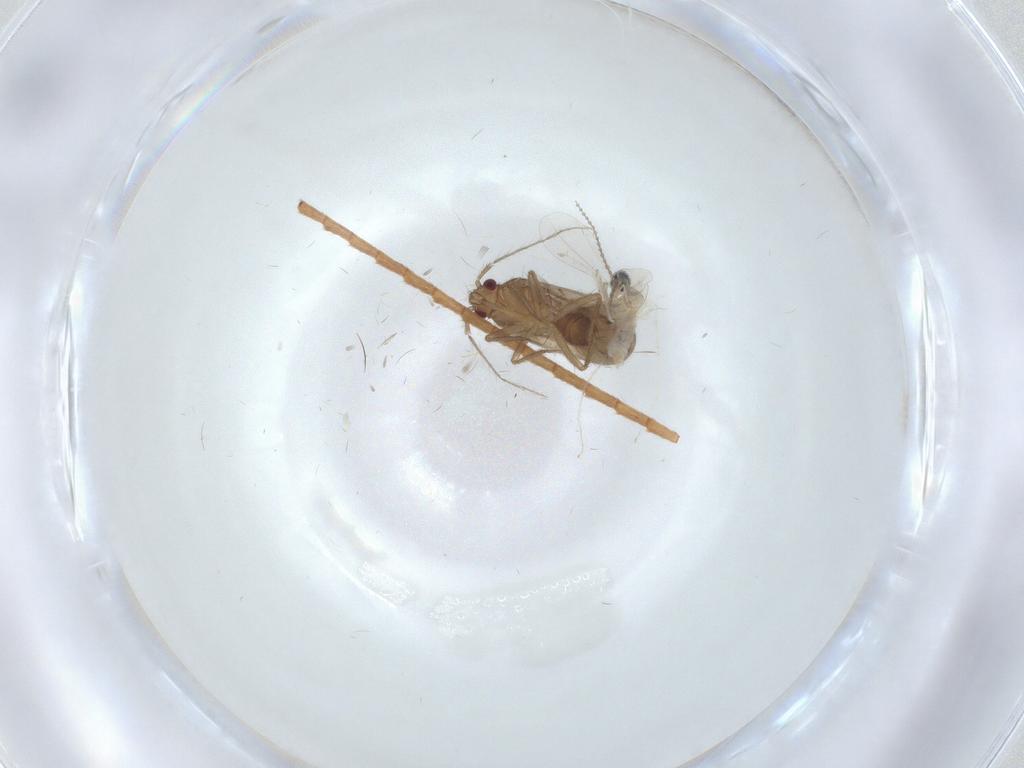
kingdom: Animalia
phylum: Arthropoda
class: Insecta
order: Hemiptera
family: Ceratocombidae
